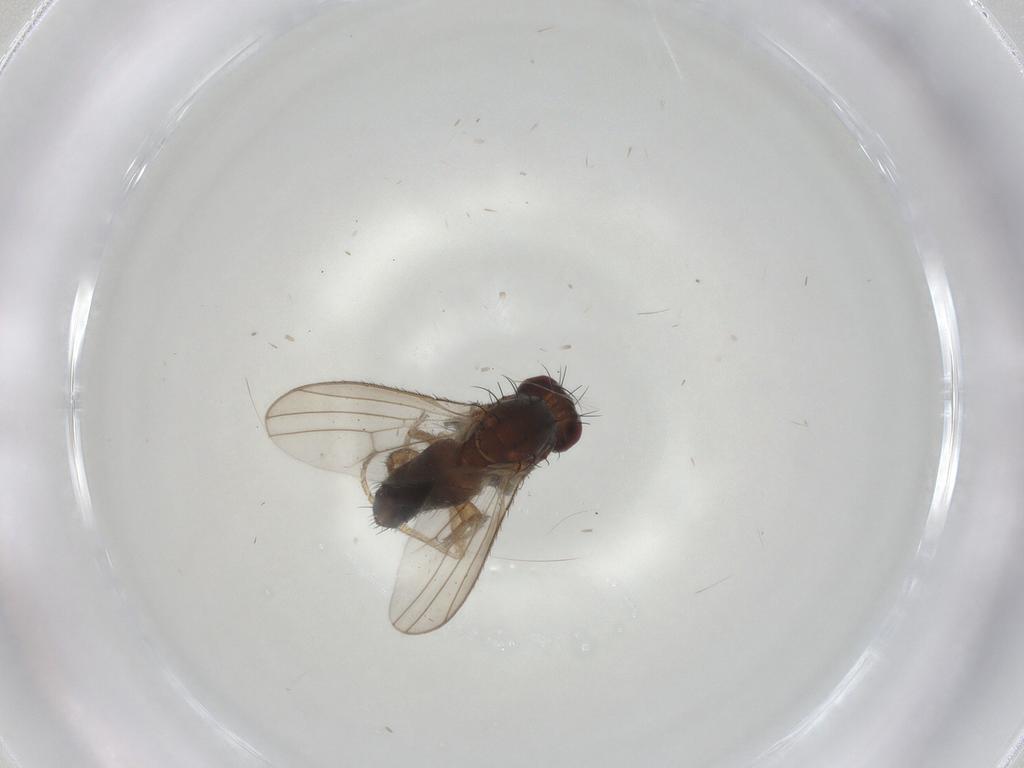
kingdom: Animalia
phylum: Arthropoda
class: Insecta
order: Diptera
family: Heleomyzidae
